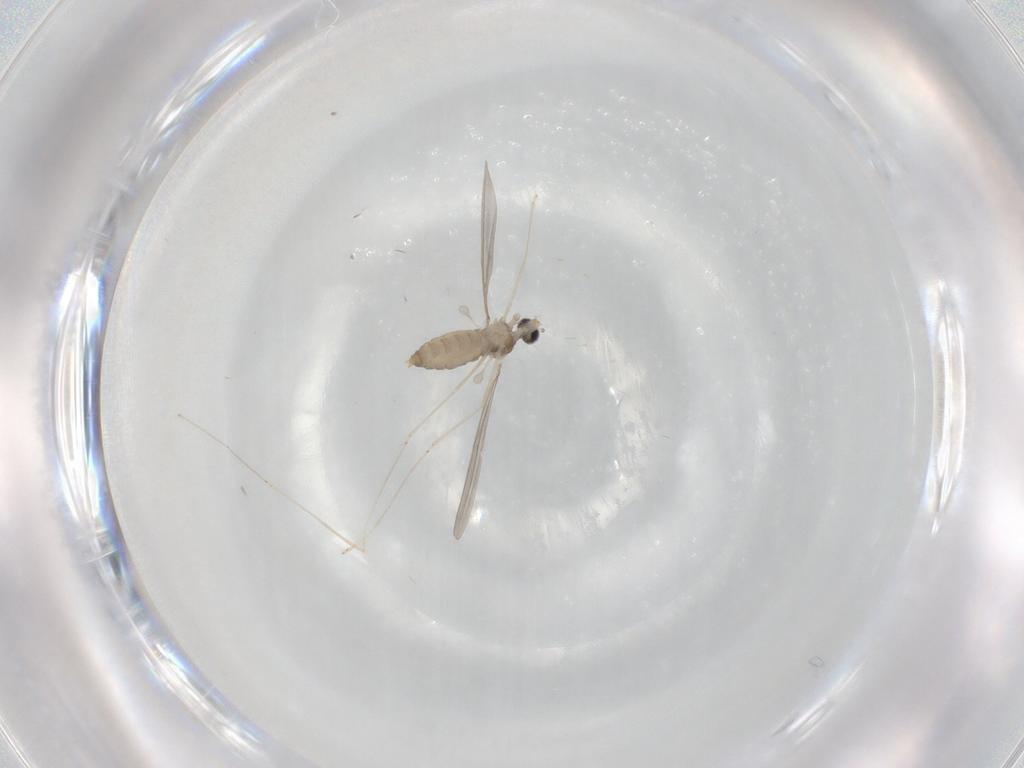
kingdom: Animalia
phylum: Arthropoda
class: Insecta
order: Diptera
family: Cecidomyiidae
